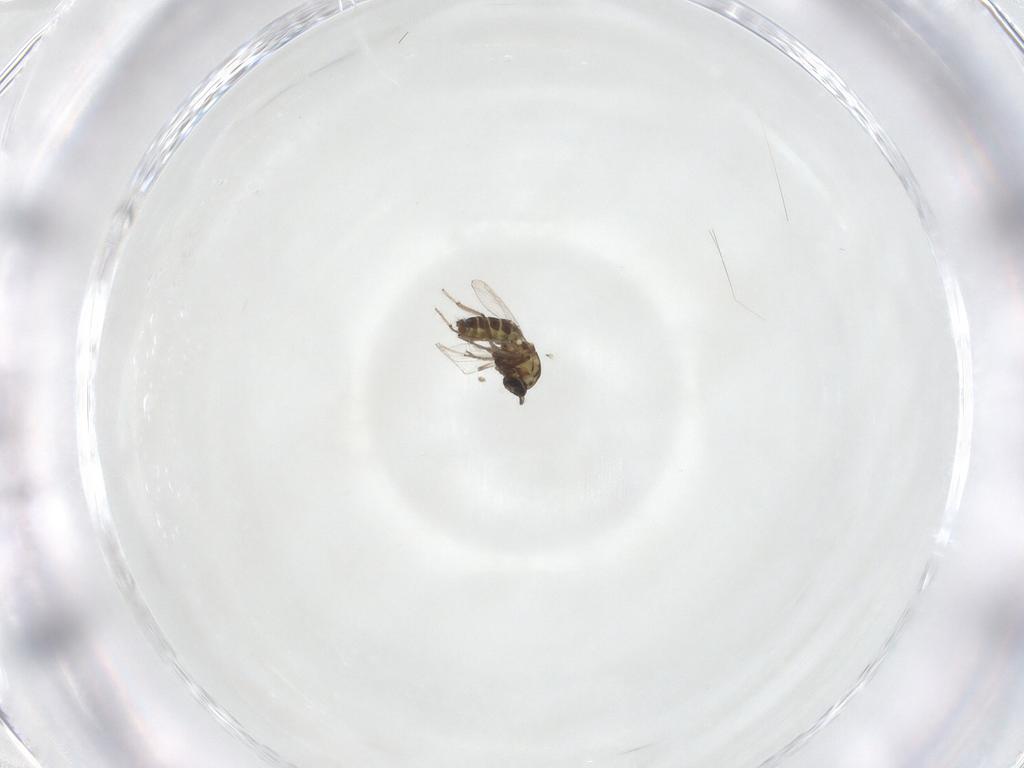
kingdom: Animalia
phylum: Arthropoda
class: Insecta
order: Diptera
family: Ceratopogonidae
